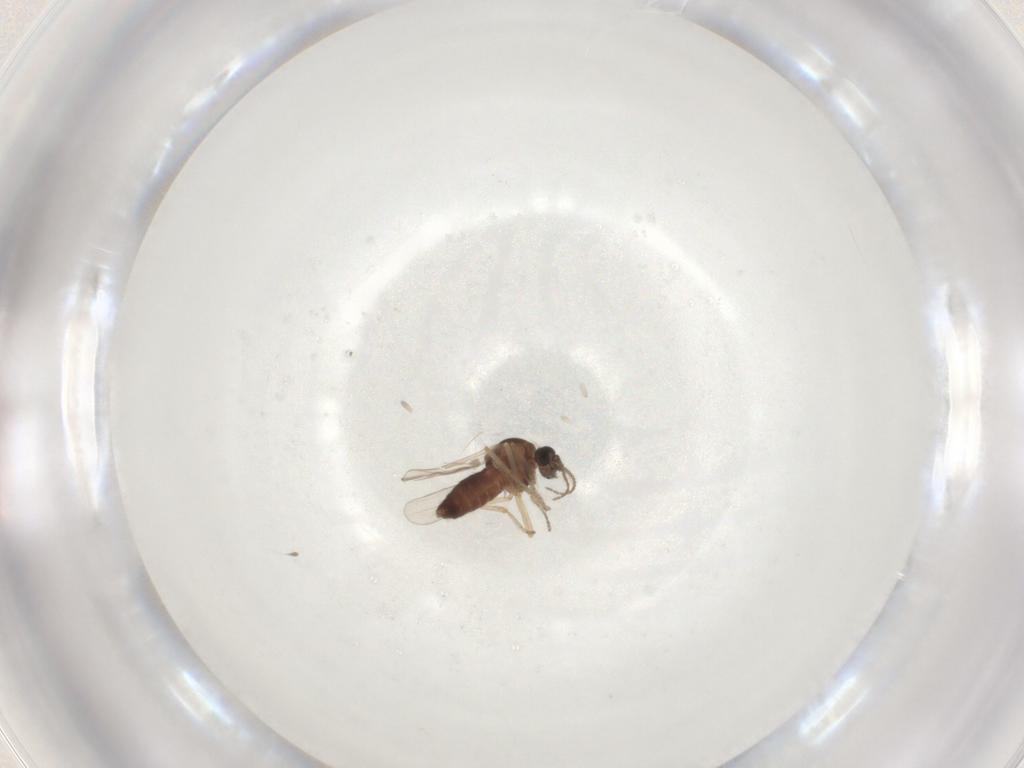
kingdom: Animalia
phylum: Arthropoda
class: Insecta
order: Diptera
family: Ceratopogonidae
